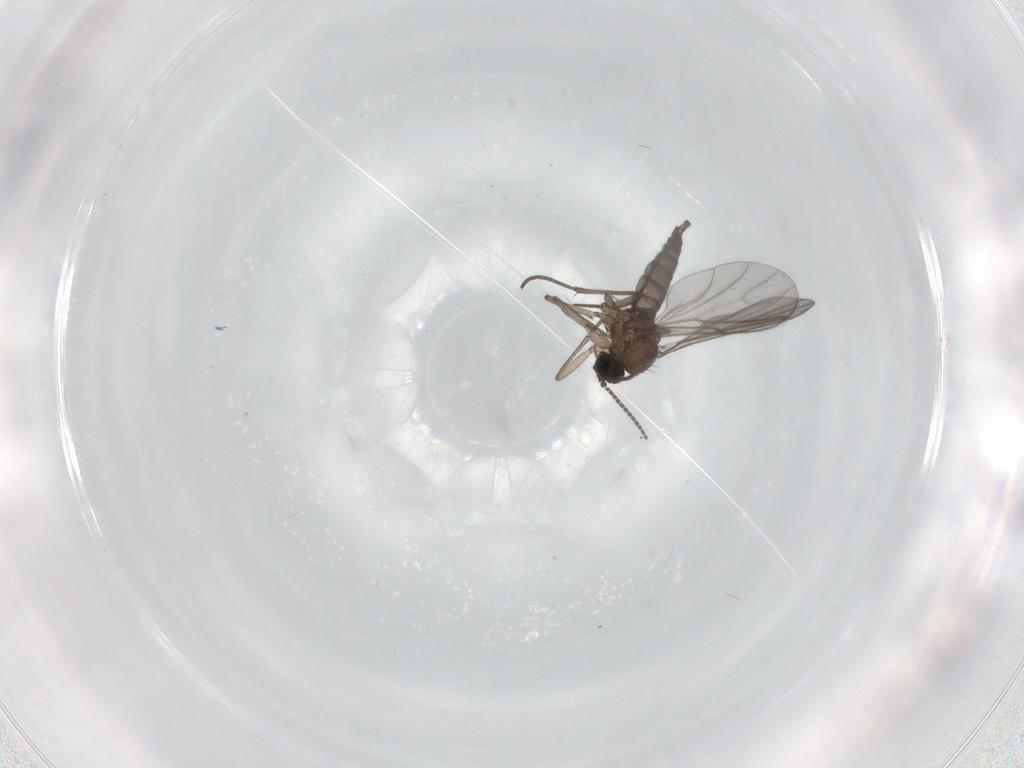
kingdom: Animalia
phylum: Arthropoda
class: Insecta
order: Diptera
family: Sciaridae
